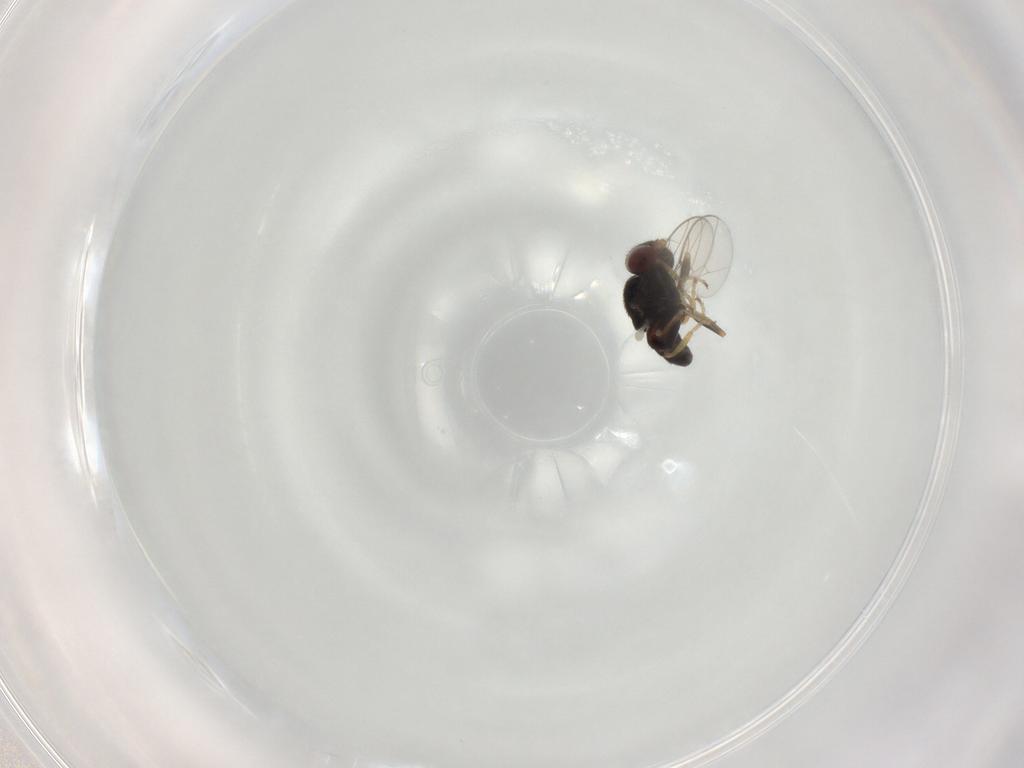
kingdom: Animalia
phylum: Arthropoda
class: Insecta
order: Diptera
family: Chloropidae
